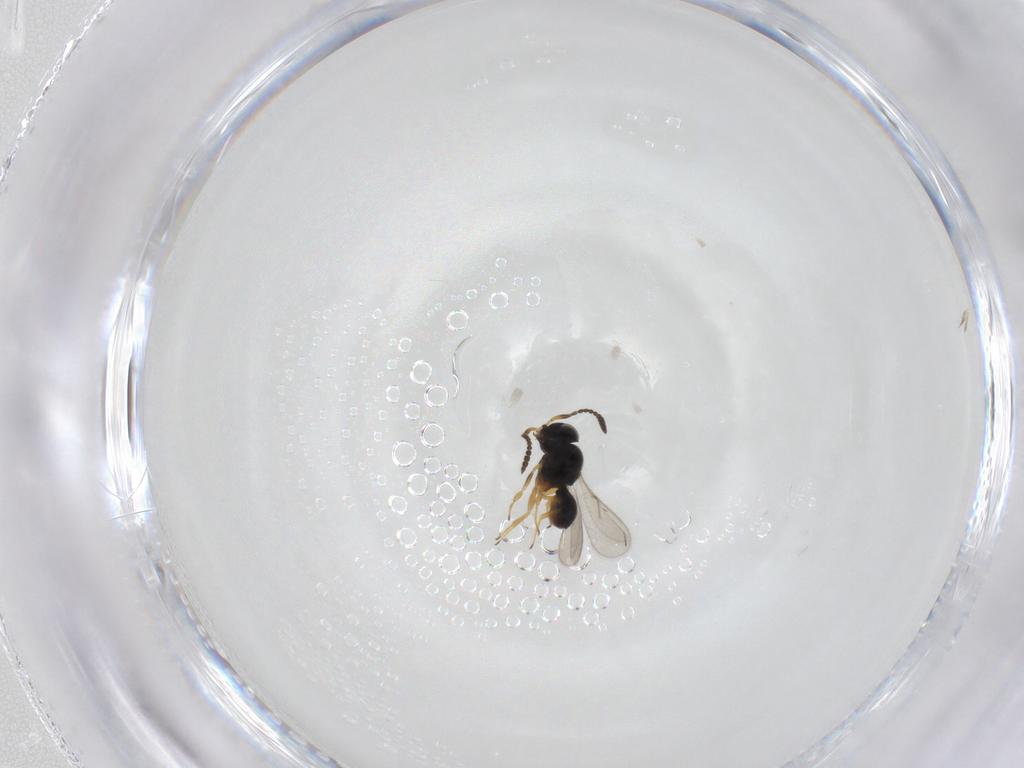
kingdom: Animalia
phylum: Arthropoda
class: Insecta
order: Hymenoptera
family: Scelionidae
